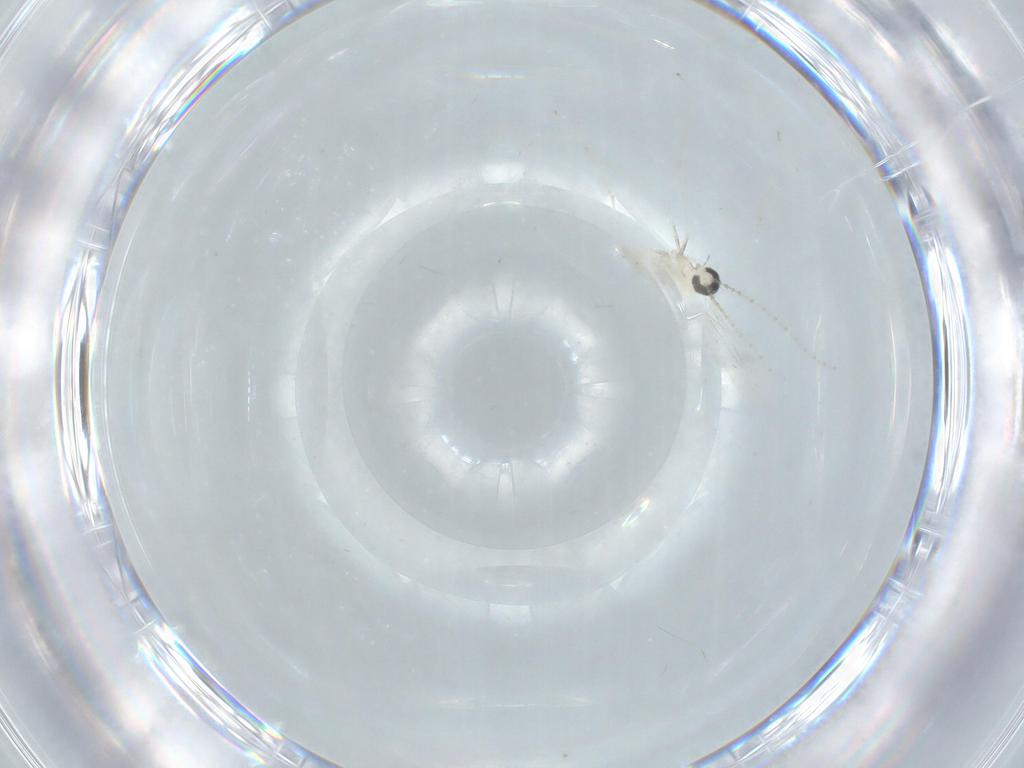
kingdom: Animalia
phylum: Arthropoda
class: Insecta
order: Diptera
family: Cecidomyiidae
